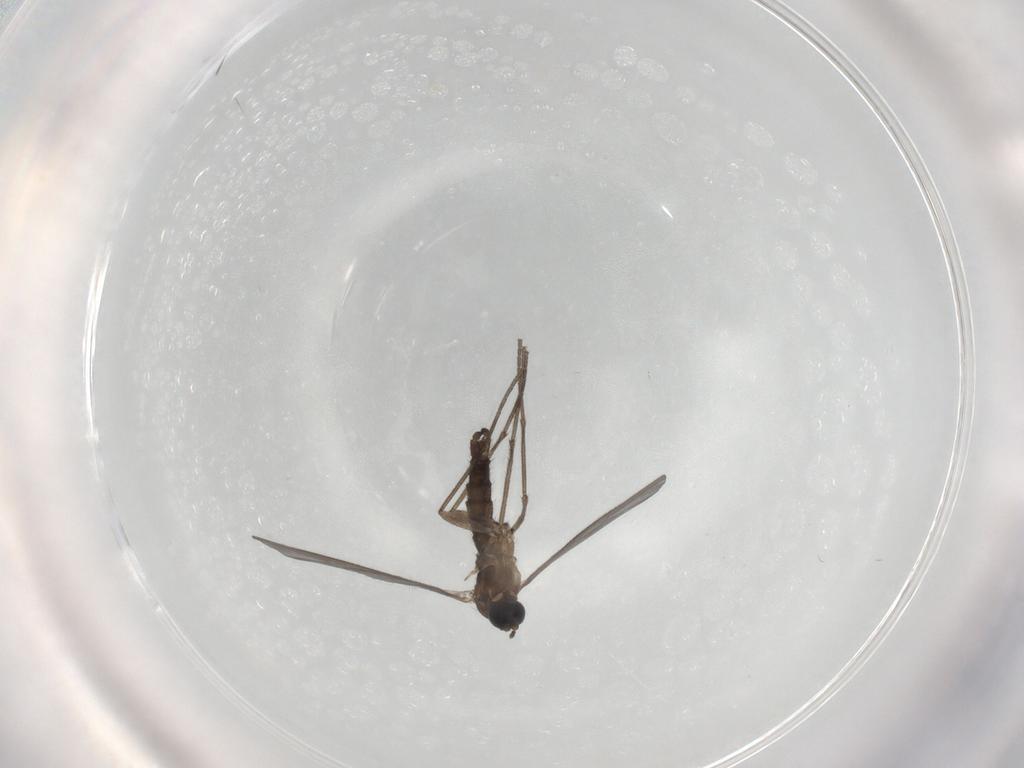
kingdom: Animalia
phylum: Arthropoda
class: Insecta
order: Diptera
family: Sciaridae
